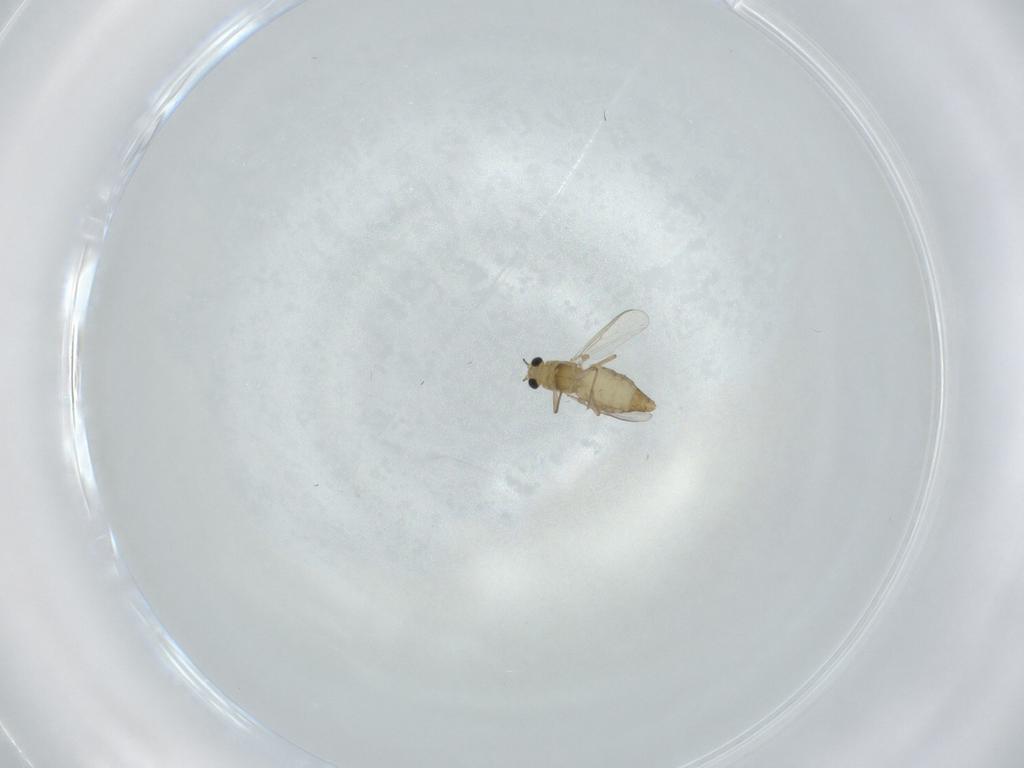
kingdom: Animalia
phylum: Arthropoda
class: Insecta
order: Diptera
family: Chironomidae
